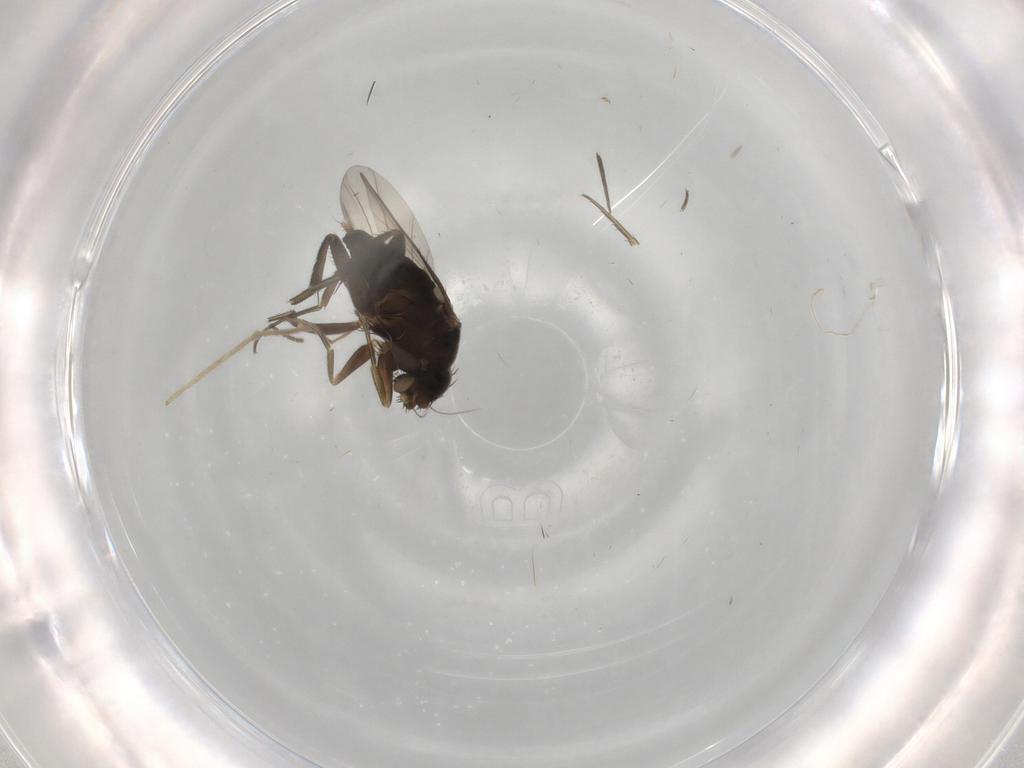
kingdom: Animalia
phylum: Arthropoda
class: Insecta
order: Diptera
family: Phoridae
